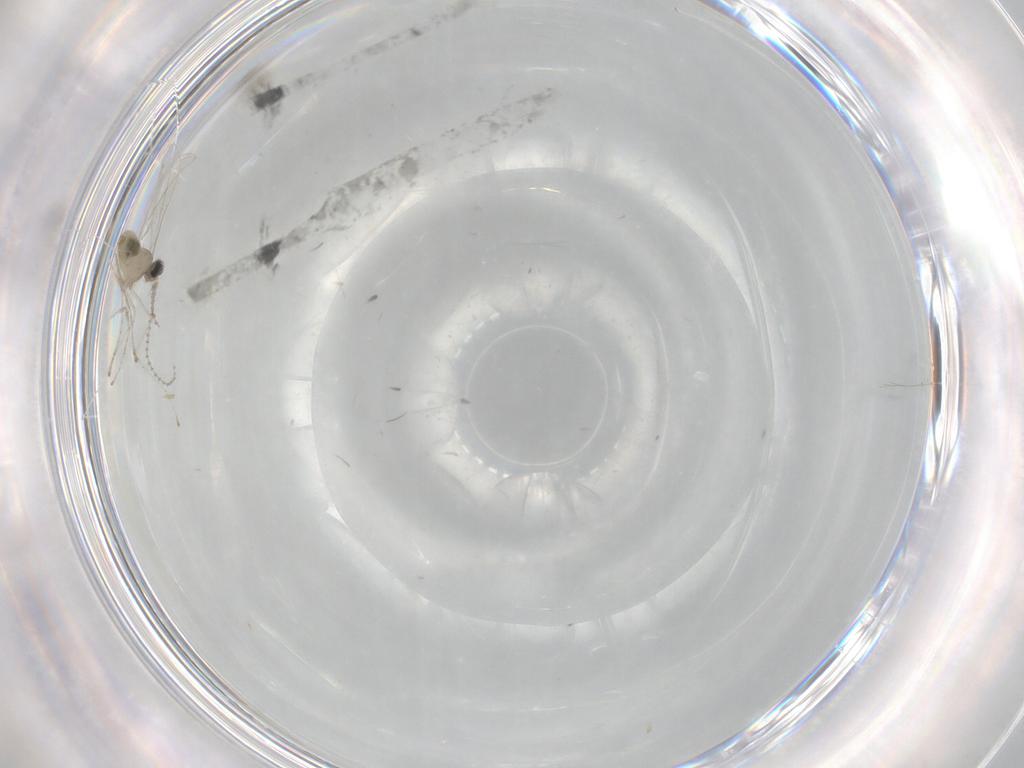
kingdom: Animalia
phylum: Arthropoda
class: Insecta
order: Diptera
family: Cecidomyiidae
